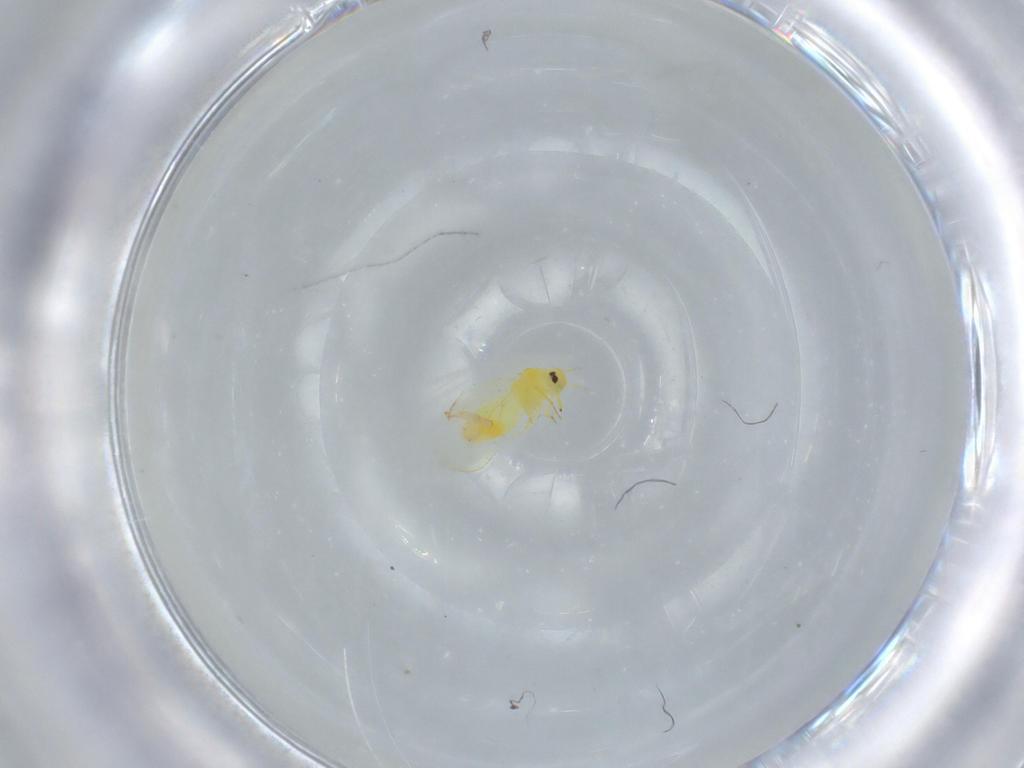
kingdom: Animalia
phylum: Arthropoda
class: Insecta
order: Hemiptera
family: Aleyrodidae
